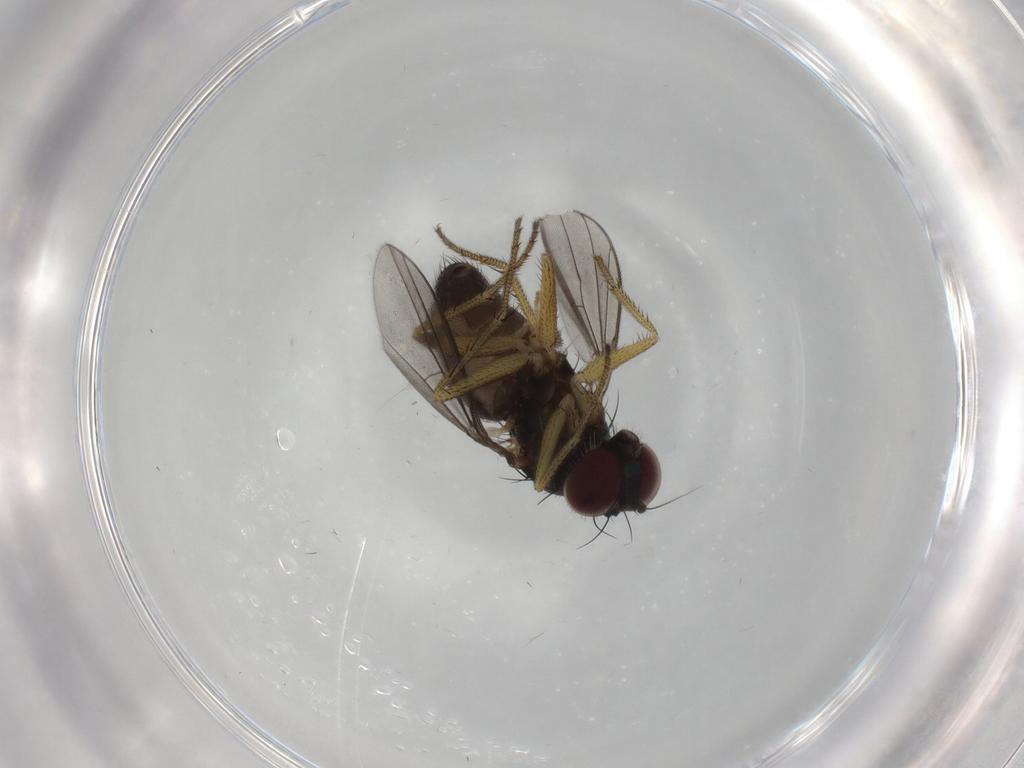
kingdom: Animalia
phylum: Arthropoda
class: Insecta
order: Diptera
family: Dolichopodidae
